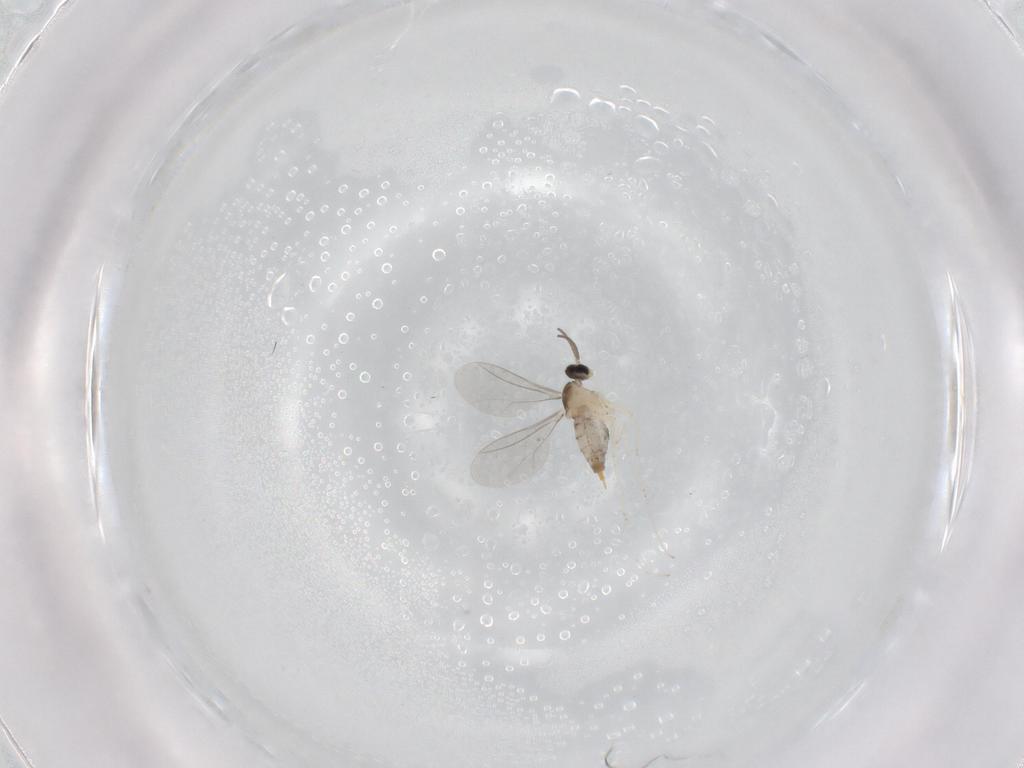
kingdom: Animalia
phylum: Arthropoda
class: Insecta
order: Diptera
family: Cecidomyiidae
